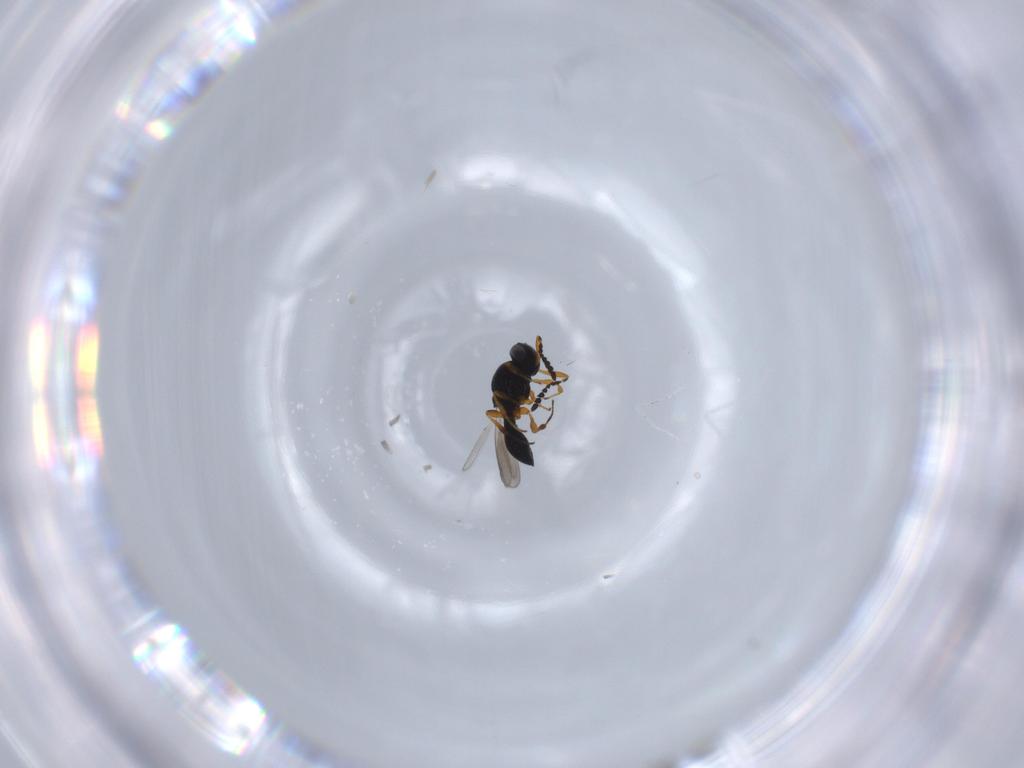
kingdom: Animalia
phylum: Arthropoda
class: Insecta
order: Hymenoptera
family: Platygastridae
